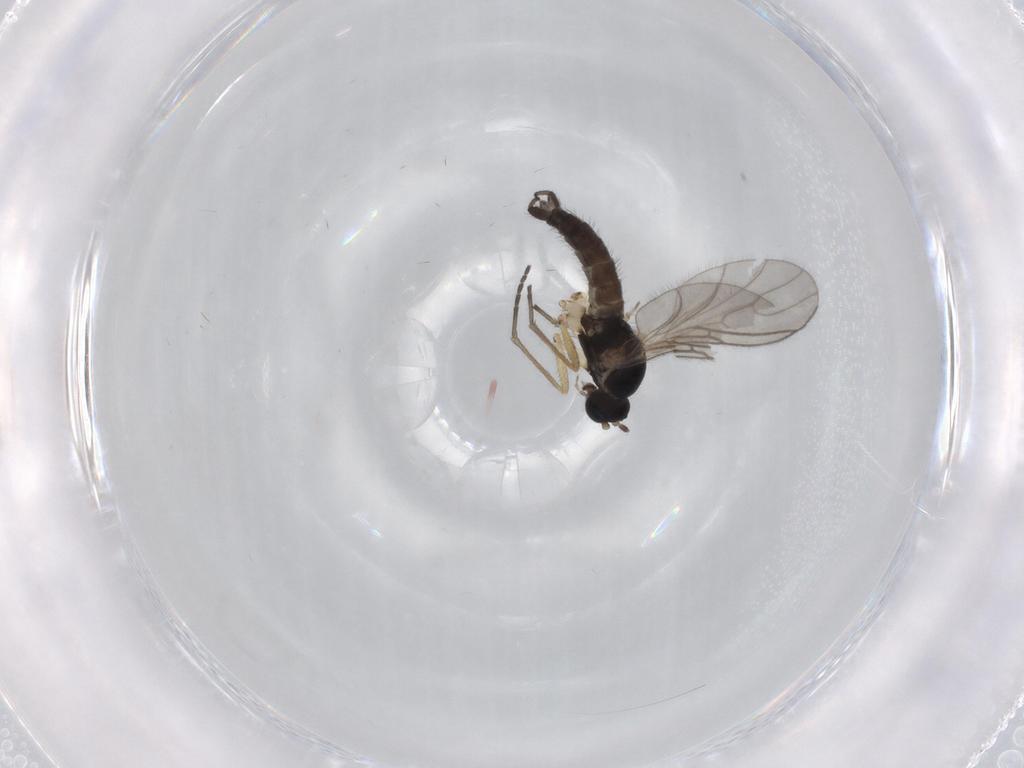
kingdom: Animalia
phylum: Arthropoda
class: Insecta
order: Diptera
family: Sciaridae
